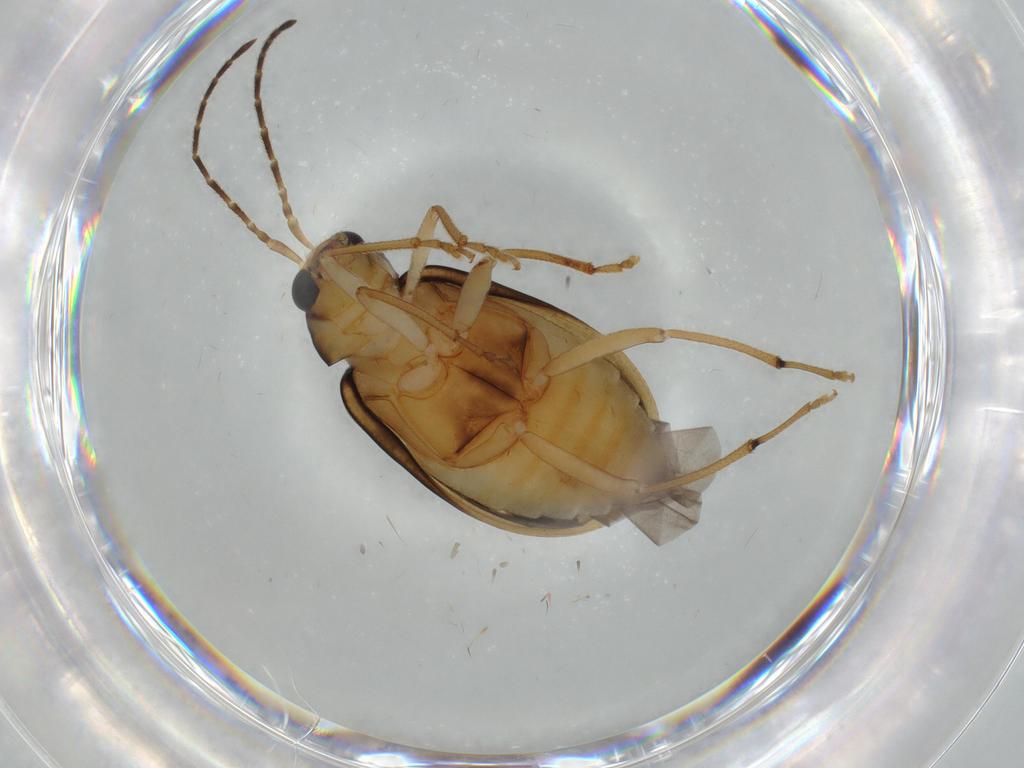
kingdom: Animalia
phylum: Arthropoda
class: Insecta
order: Coleoptera
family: Chrysomelidae
